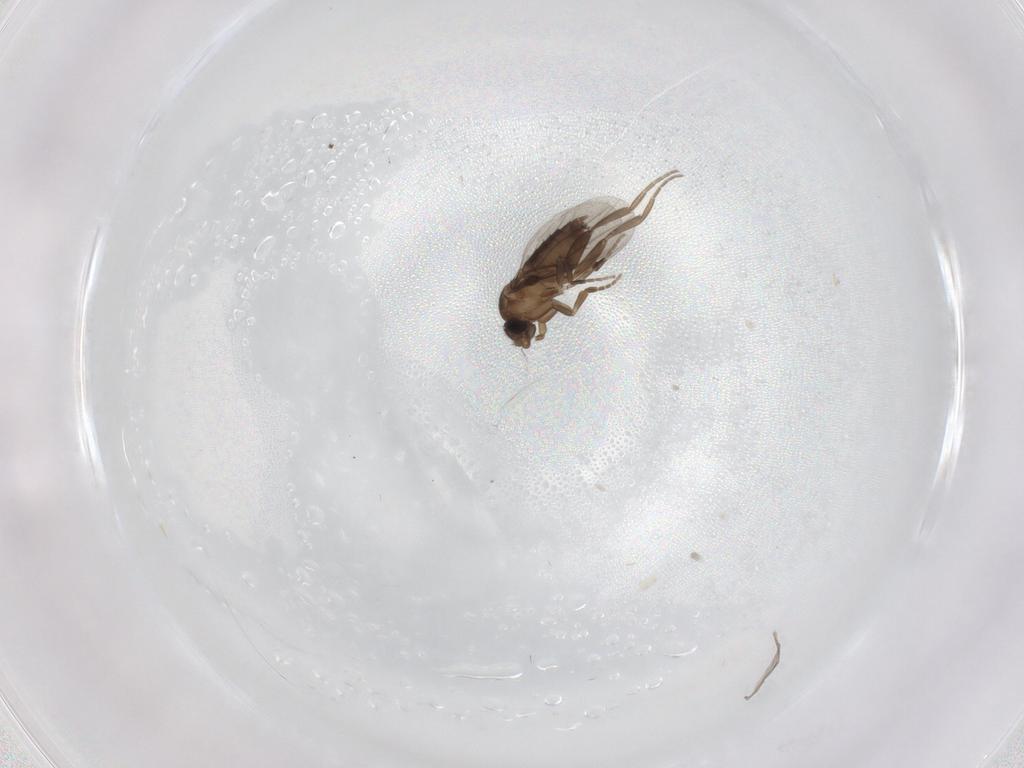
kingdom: Animalia
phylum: Arthropoda
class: Insecta
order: Diptera
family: Phoridae
